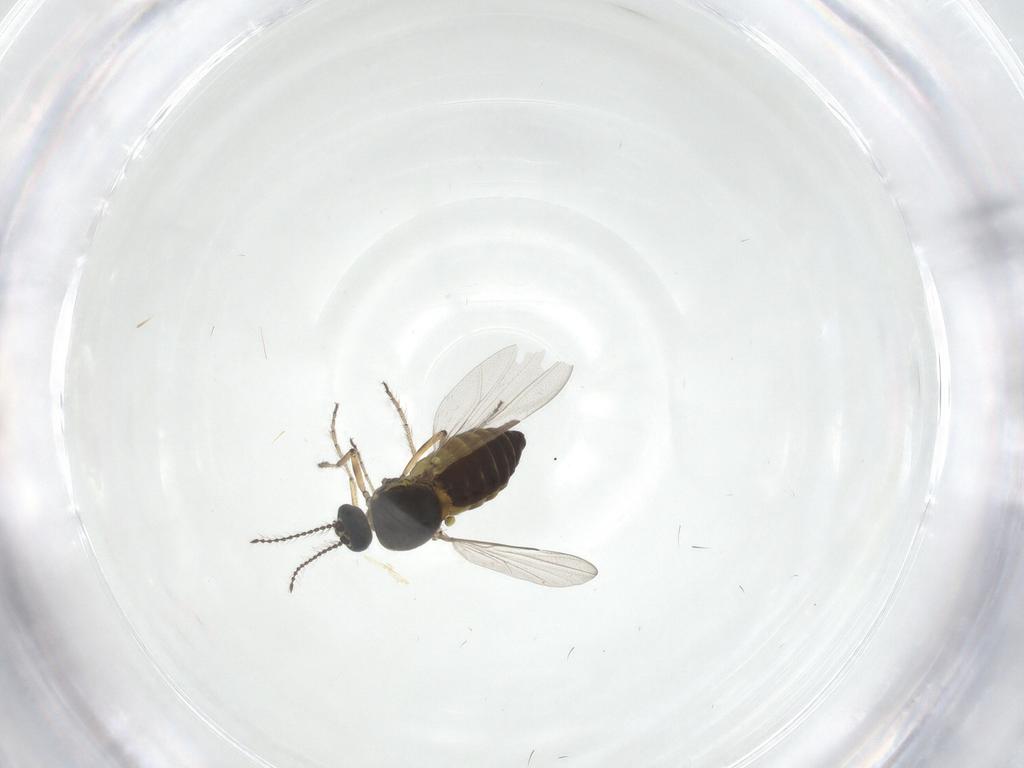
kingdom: Animalia
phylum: Arthropoda
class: Insecta
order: Diptera
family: Ceratopogonidae
